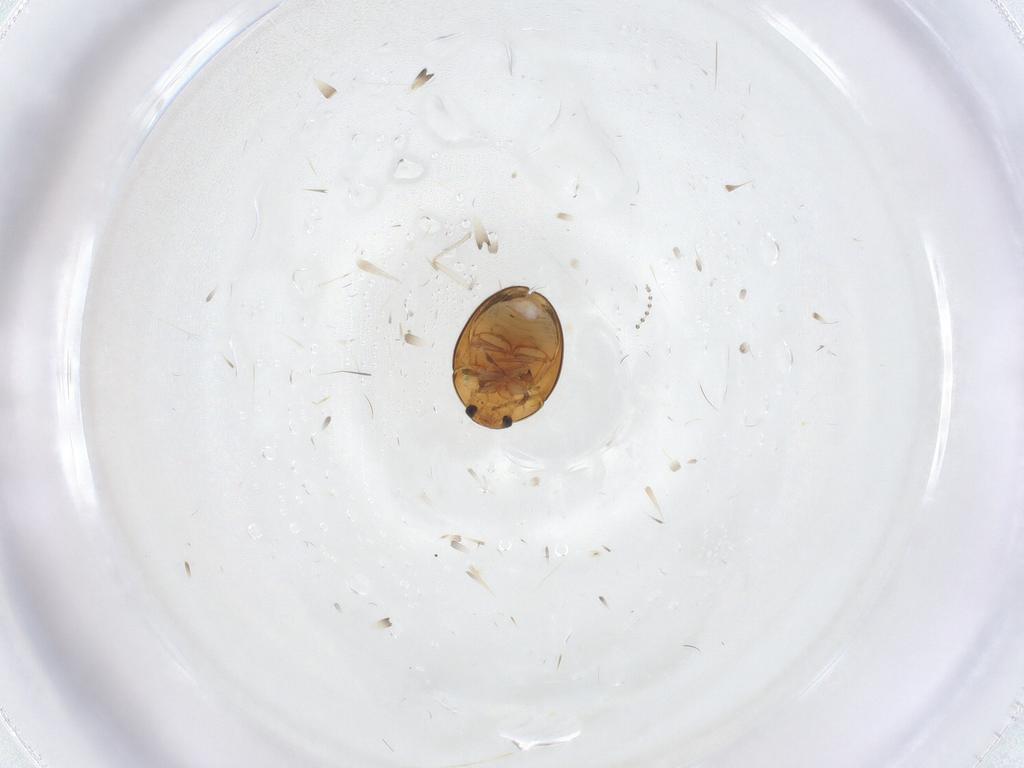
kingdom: Animalia
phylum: Arthropoda
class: Insecta
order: Coleoptera
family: Phalacridae
